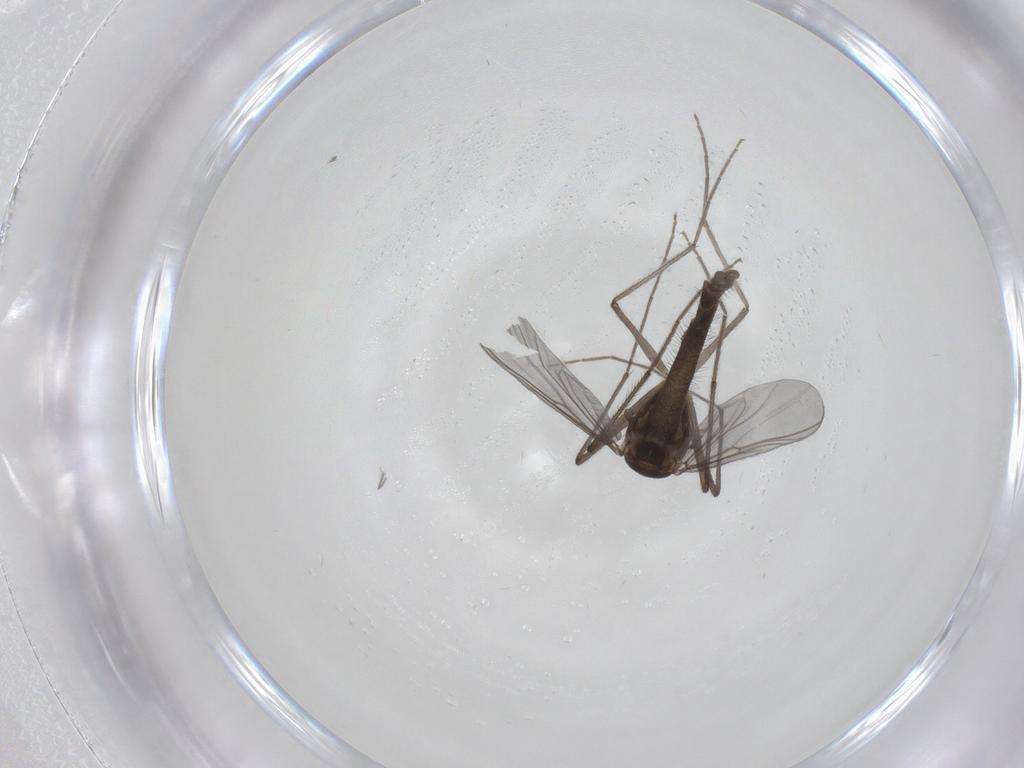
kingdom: Animalia
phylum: Arthropoda
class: Insecta
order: Diptera
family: Chironomidae
